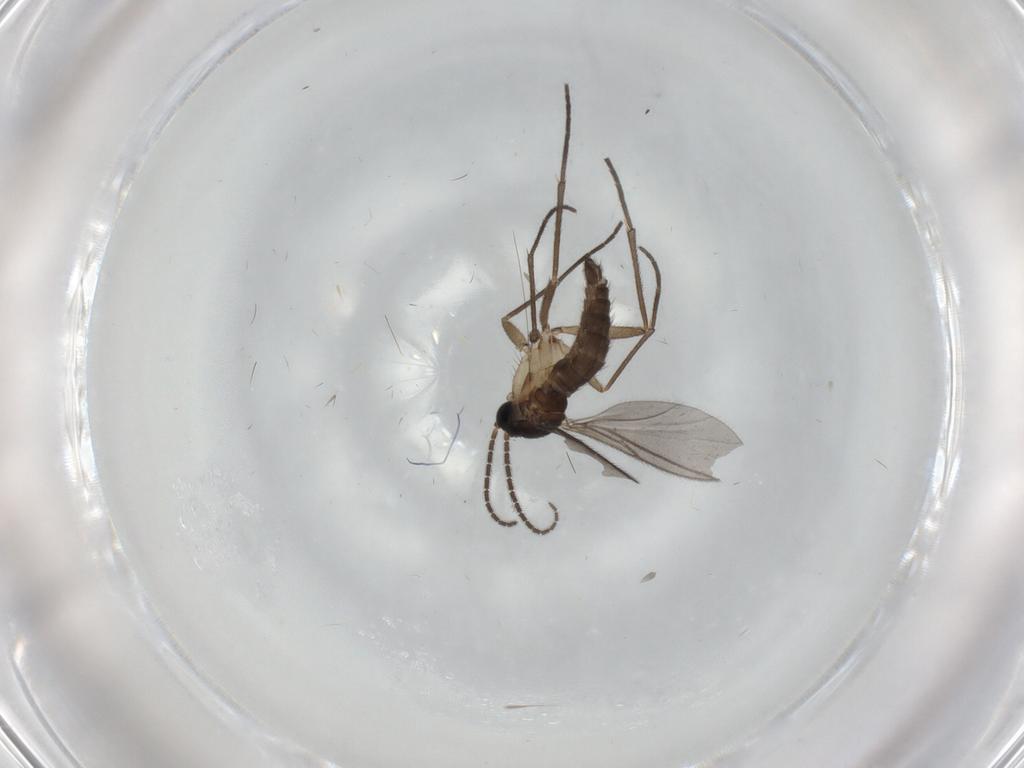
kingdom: Animalia
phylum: Arthropoda
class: Insecta
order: Diptera
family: Sciaridae
